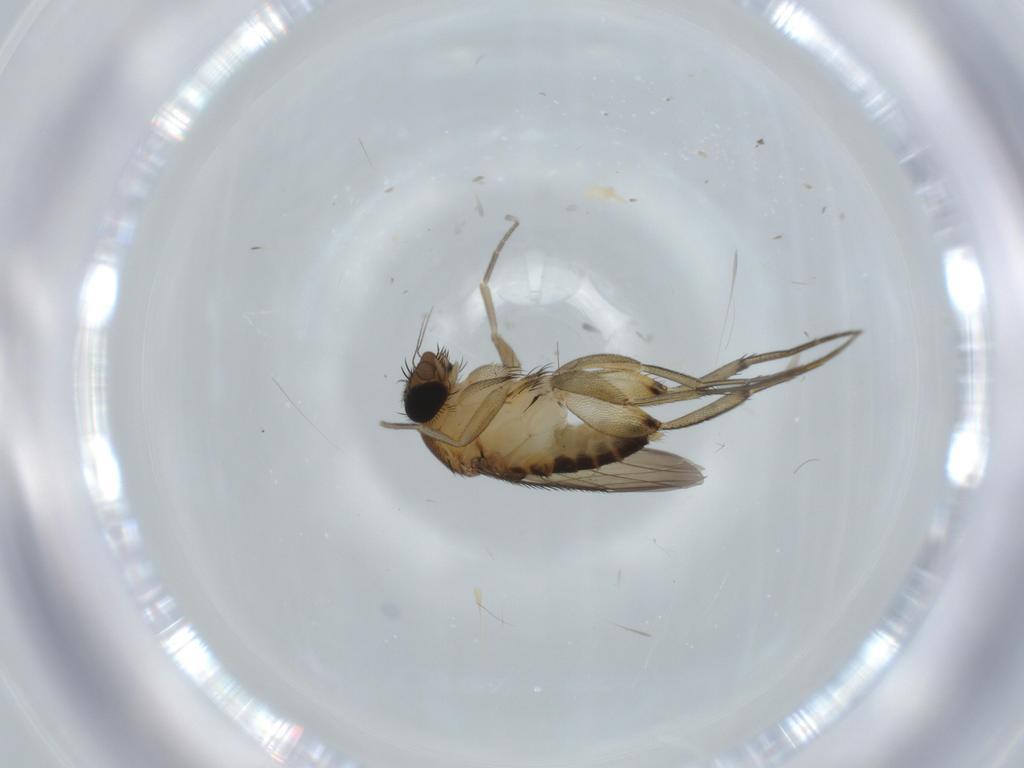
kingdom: Animalia
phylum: Arthropoda
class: Insecta
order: Diptera
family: Phoridae
